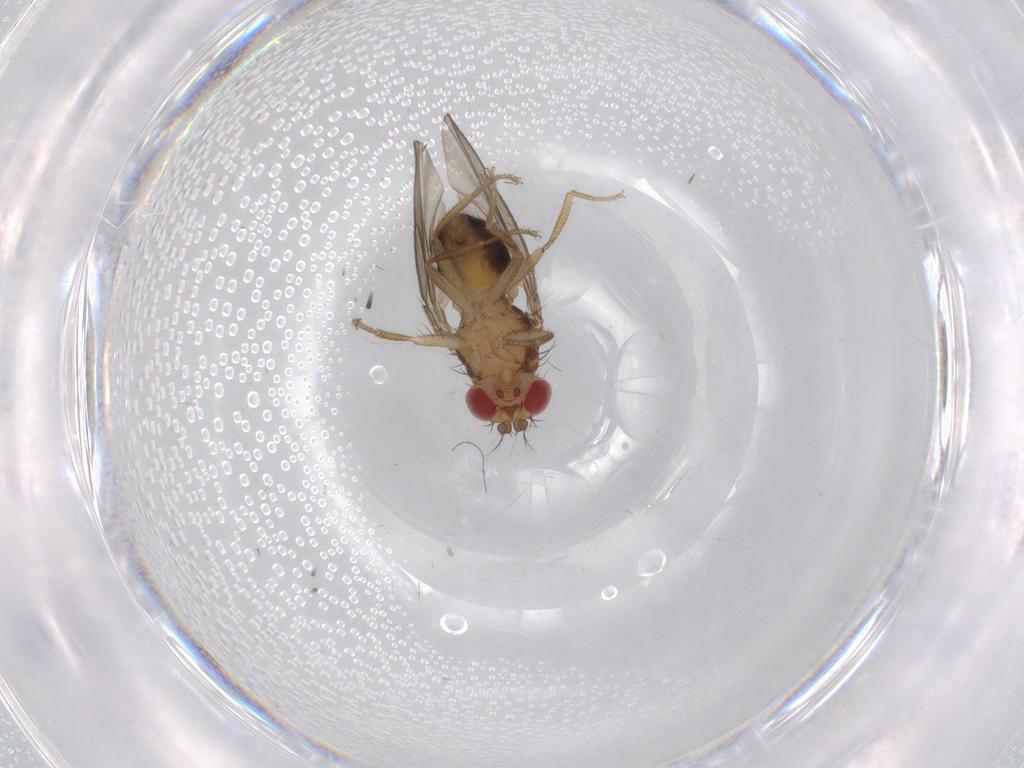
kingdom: Animalia
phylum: Arthropoda
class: Insecta
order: Diptera
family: Drosophilidae
